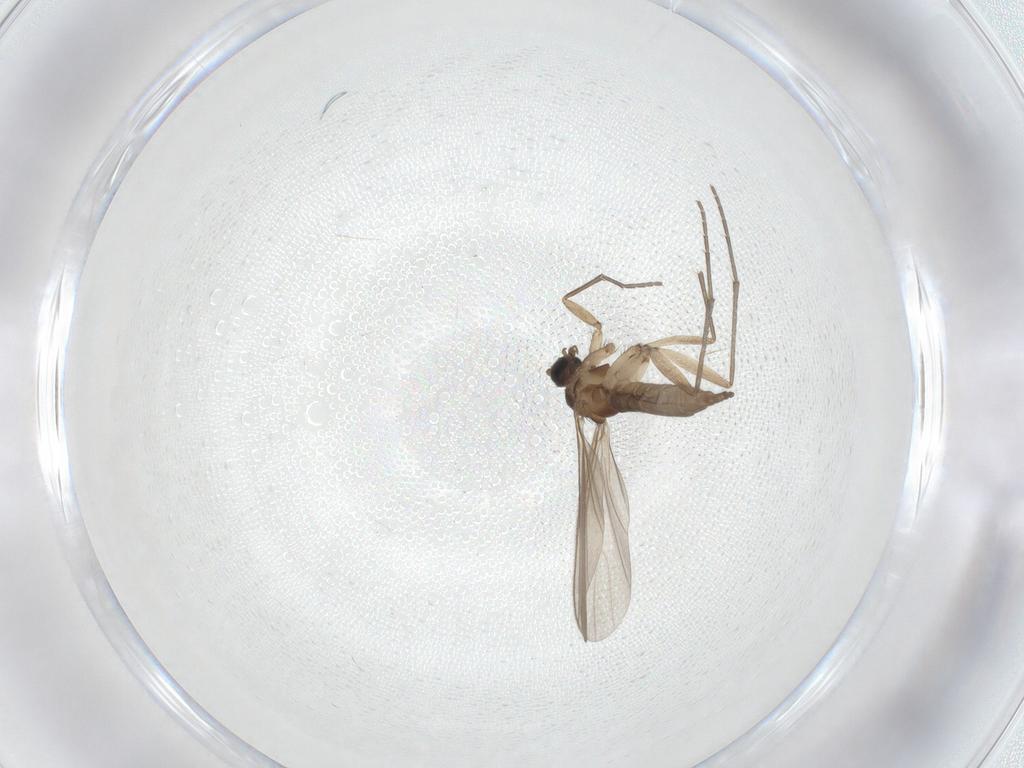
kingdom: Animalia
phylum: Arthropoda
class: Insecta
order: Diptera
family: Sciaridae
